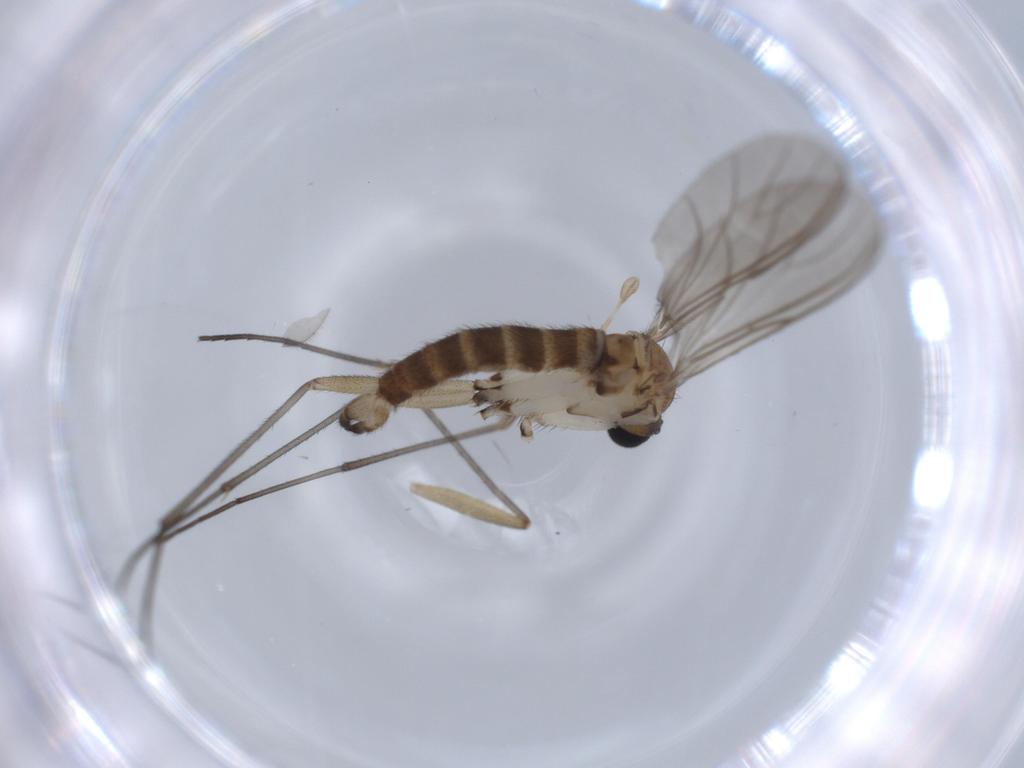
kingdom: Animalia
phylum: Arthropoda
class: Insecta
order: Diptera
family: Sciaridae
